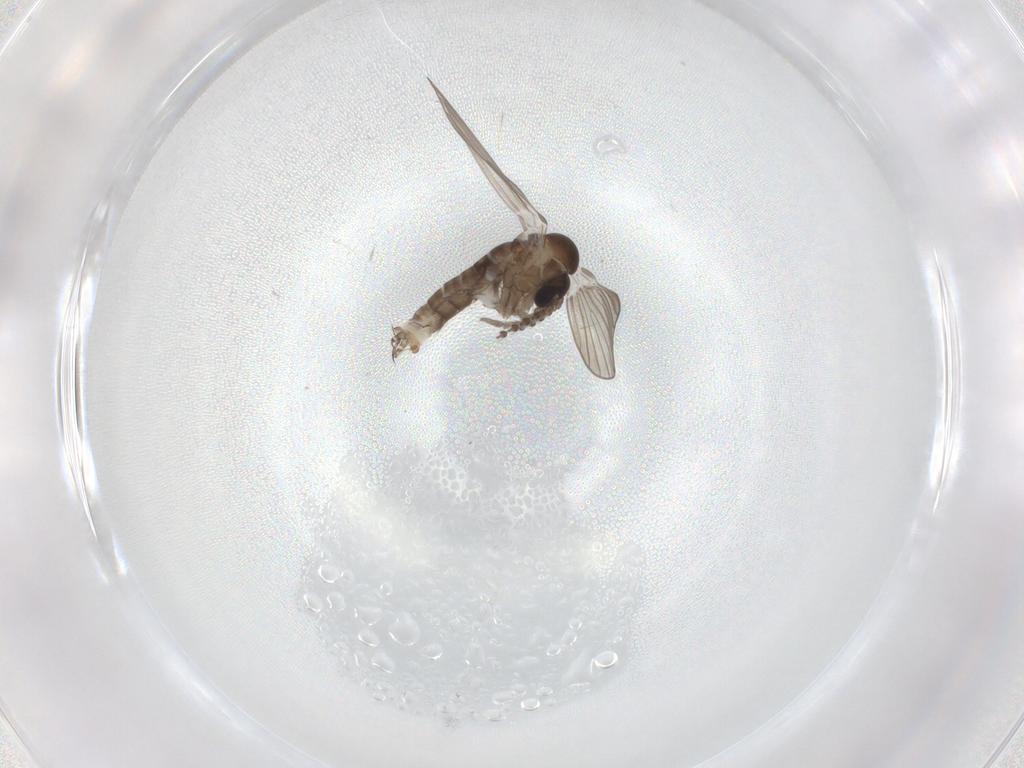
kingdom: Animalia
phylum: Arthropoda
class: Insecta
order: Diptera
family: Psychodidae
